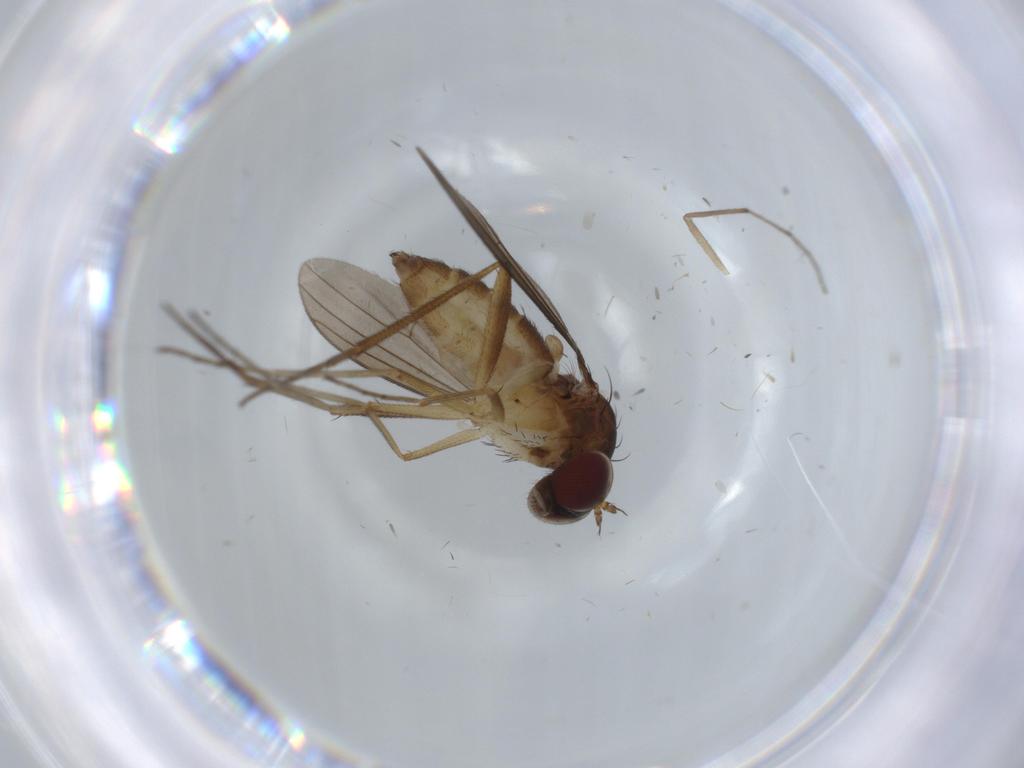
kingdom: Animalia
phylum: Arthropoda
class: Insecta
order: Diptera
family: Dolichopodidae
